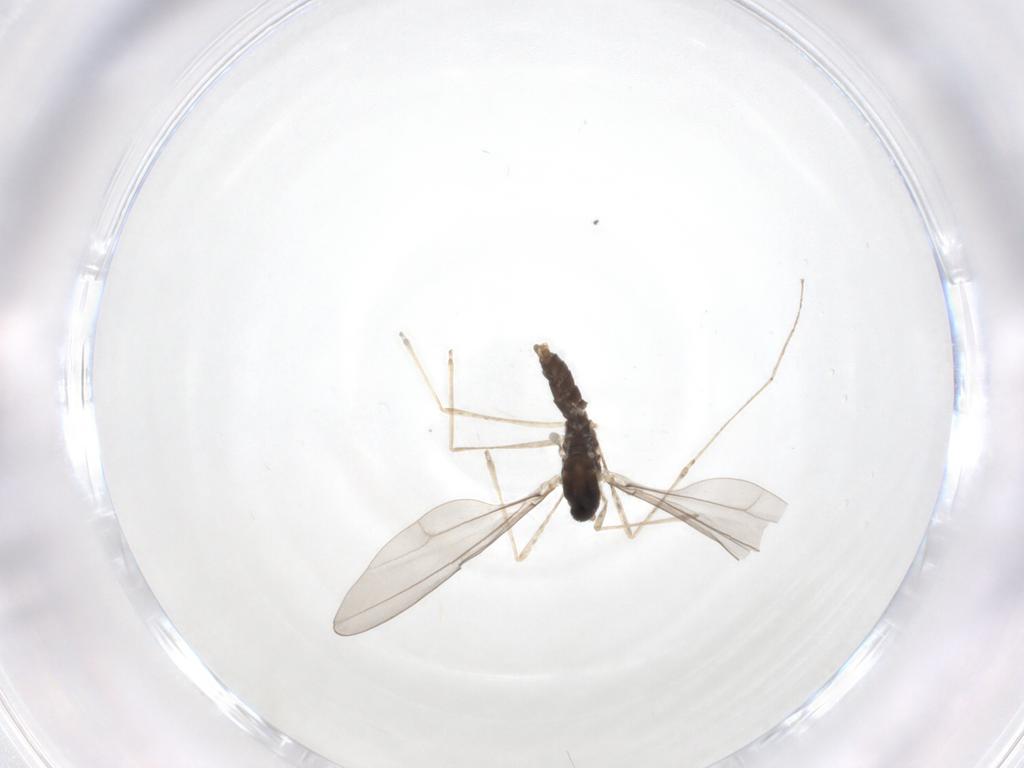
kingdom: Animalia
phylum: Arthropoda
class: Insecta
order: Diptera
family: Cecidomyiidae
